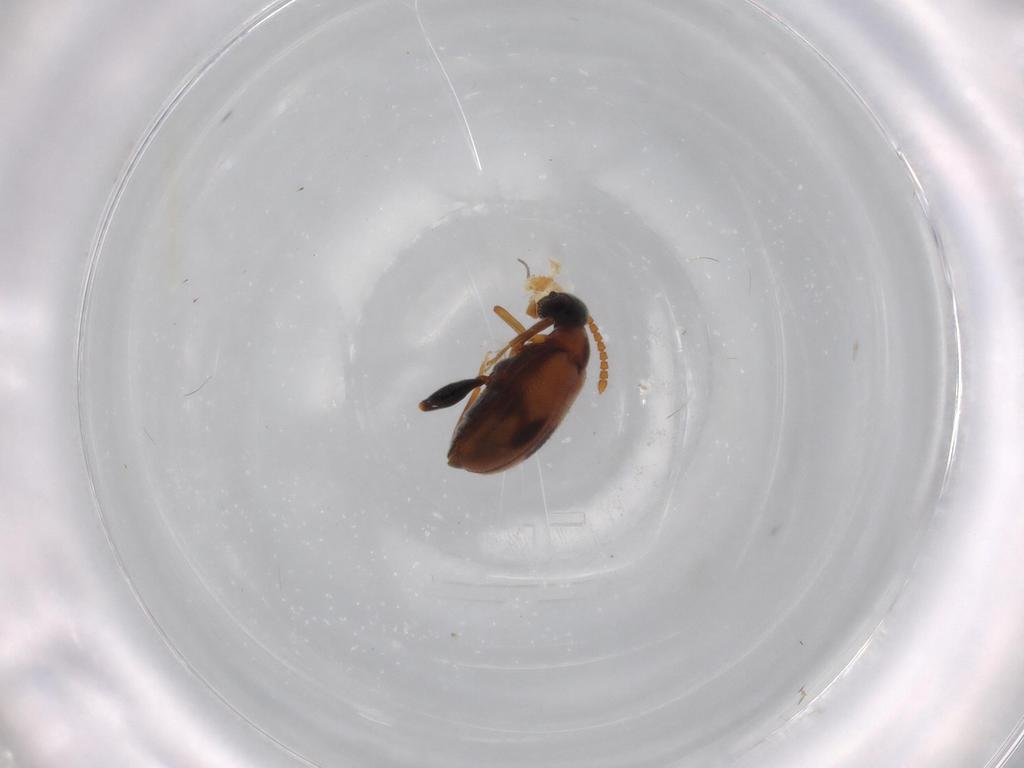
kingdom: Animalia
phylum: Arthropoda
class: Insecta
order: Coleoptera
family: Aderidae
